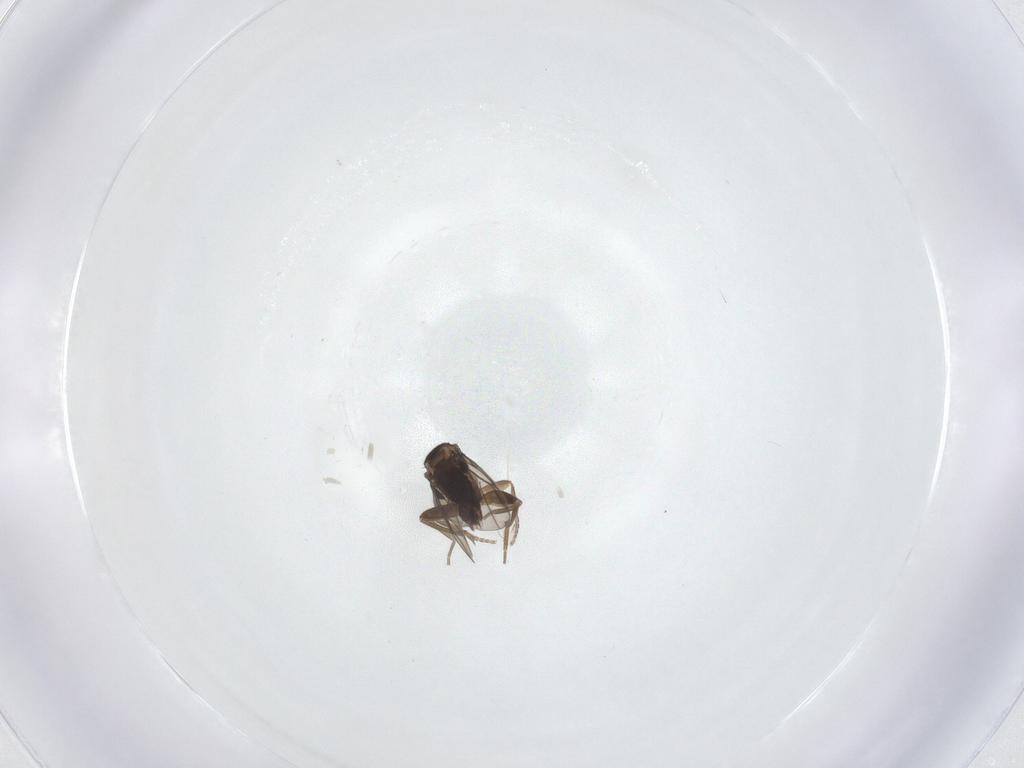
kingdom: Animalia
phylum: Arthropoda
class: Insecta
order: Diptera
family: Phoridae
